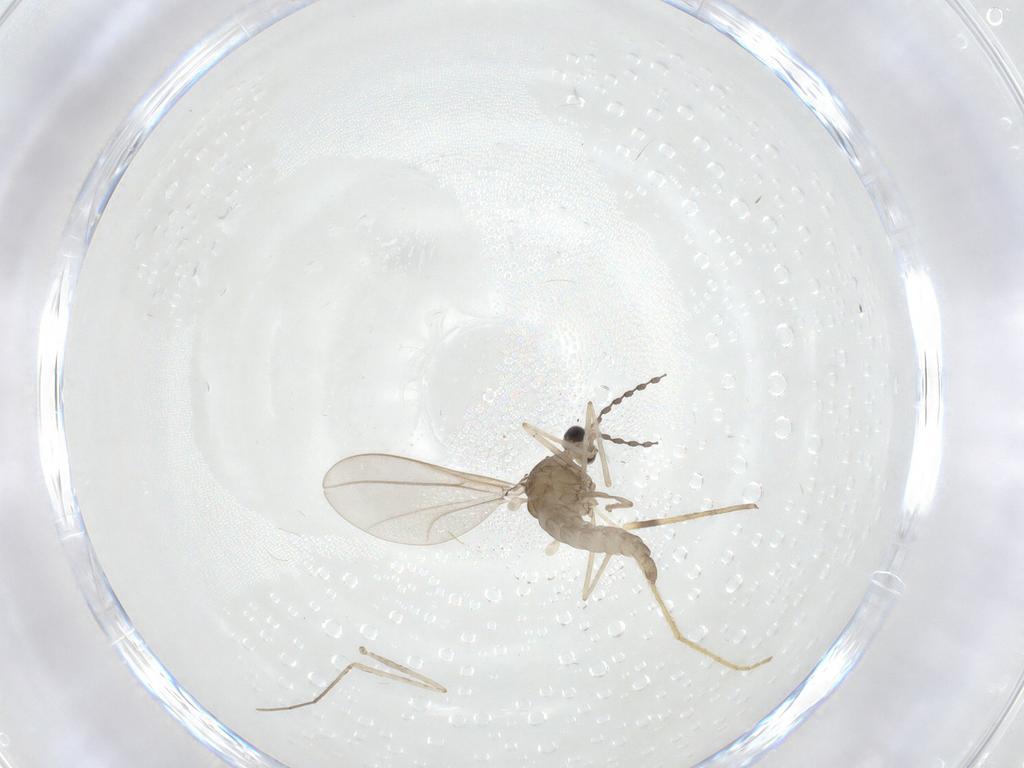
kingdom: Animalia
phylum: Arthropoda
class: Insecta
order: Diptera
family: Cecidomyiidae
